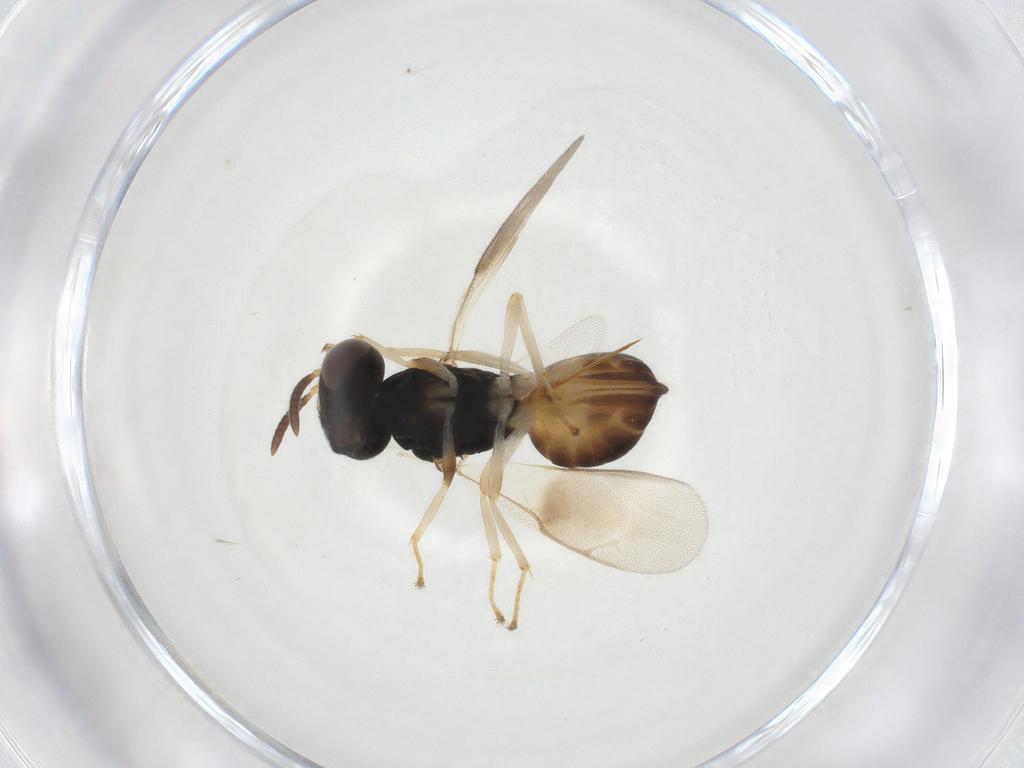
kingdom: Animalia
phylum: Arthropoda
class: Insecta
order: Hymenoptera
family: Pteromalidae
